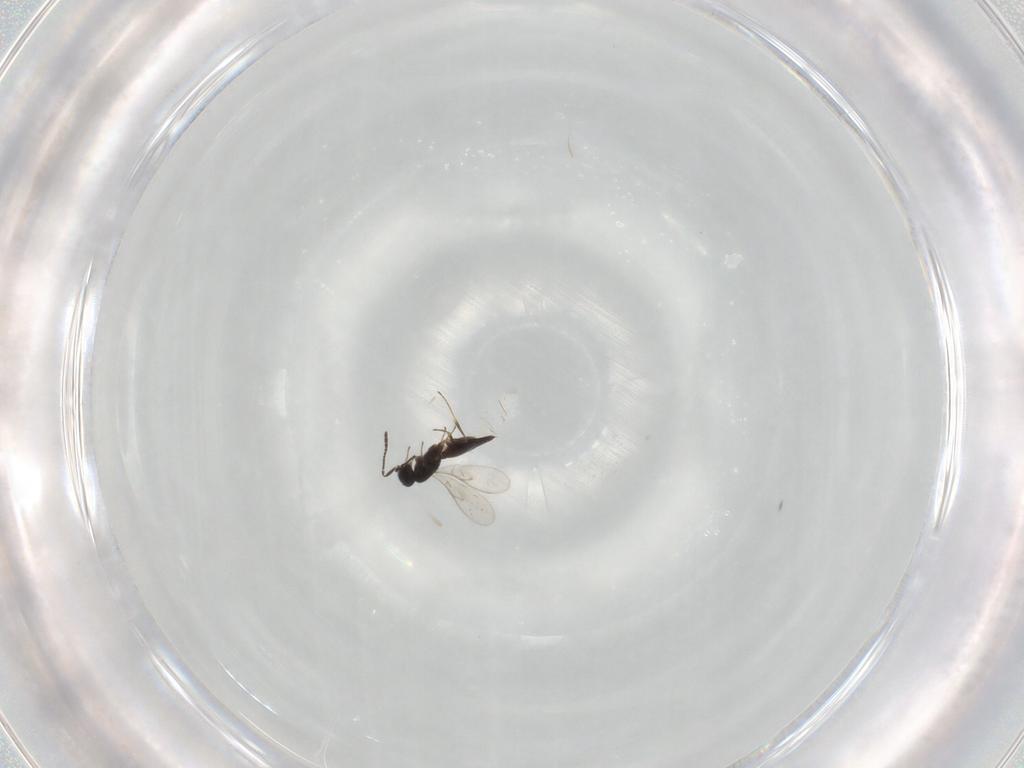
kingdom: Animalia
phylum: Arthropoda
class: Insecta
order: Hymenoptera
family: Scelionidae
